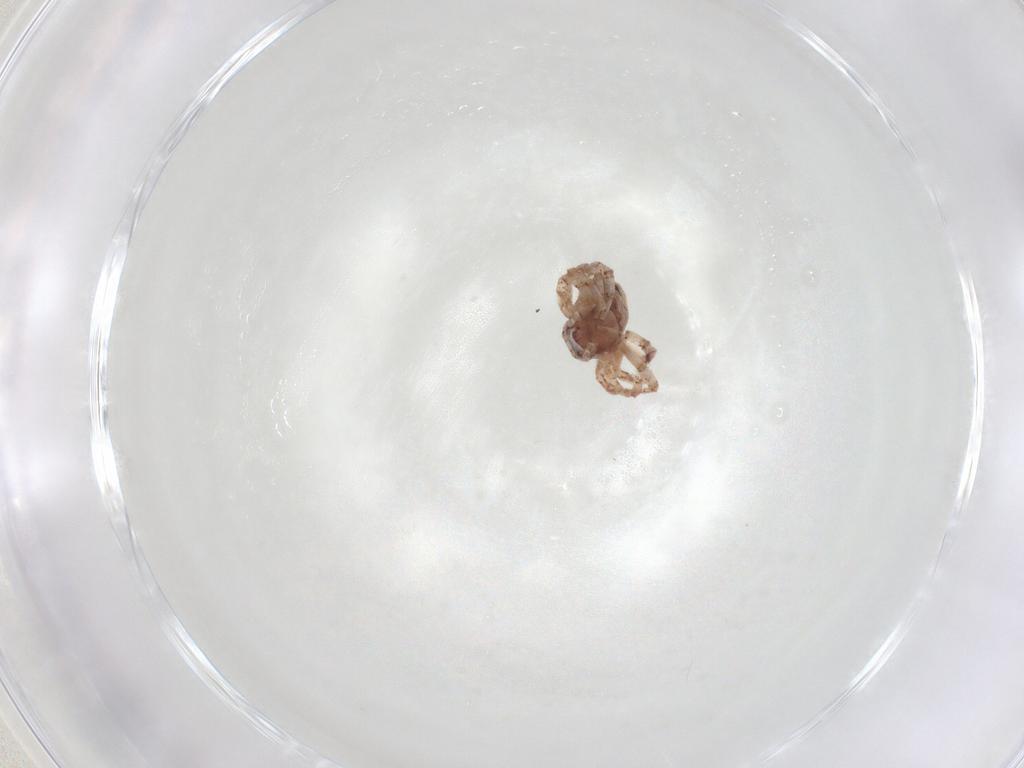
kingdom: Animalia
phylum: Arthropoda
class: Arachnida
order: Araneae
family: Philodromidae
